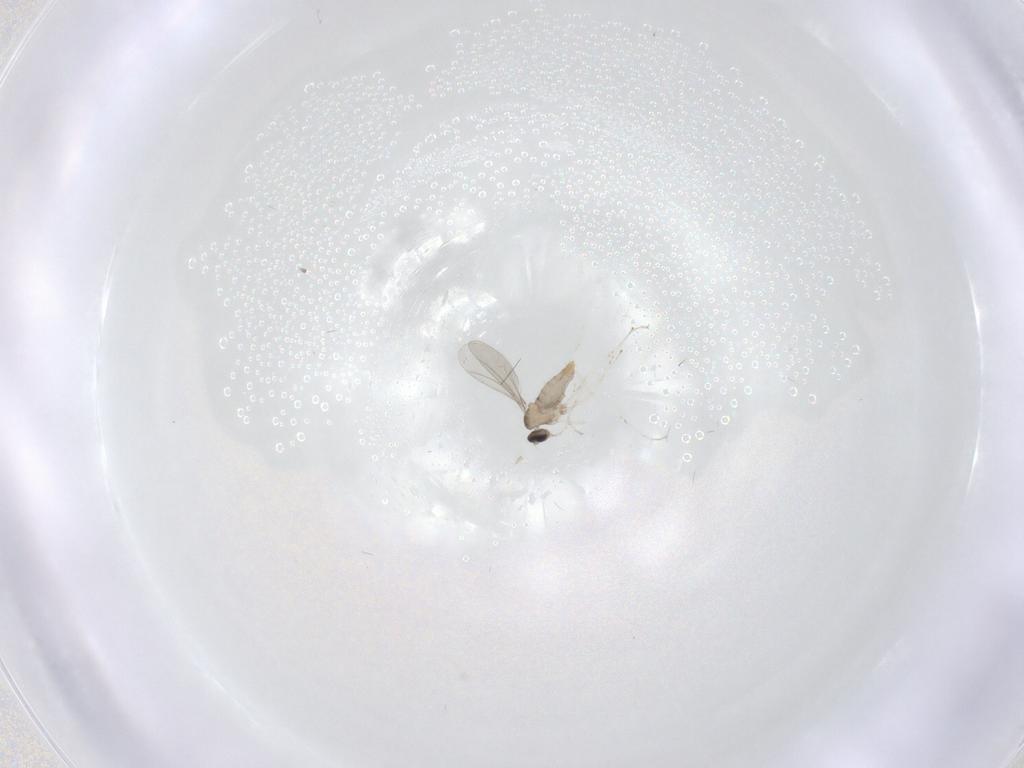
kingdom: Animalia
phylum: Arthropoda
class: Insecta
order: Diptera
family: Cecidomyiidae
